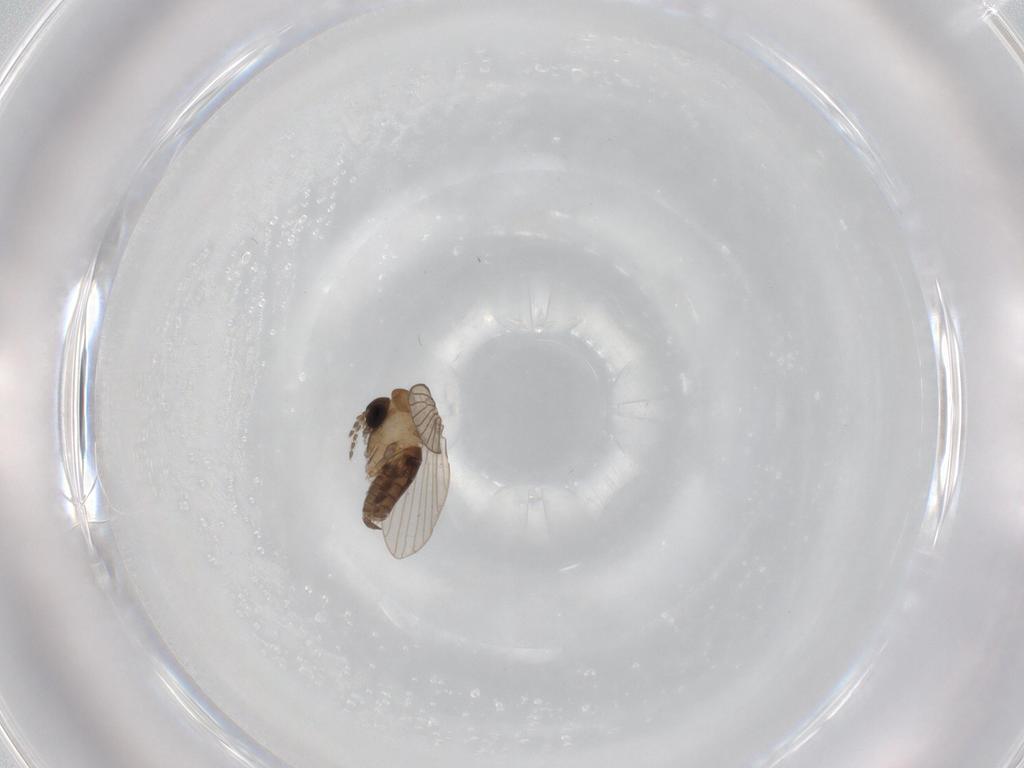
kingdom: Animalia
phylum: Arthropoda
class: Insecta
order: Diptera
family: Psychodidae
